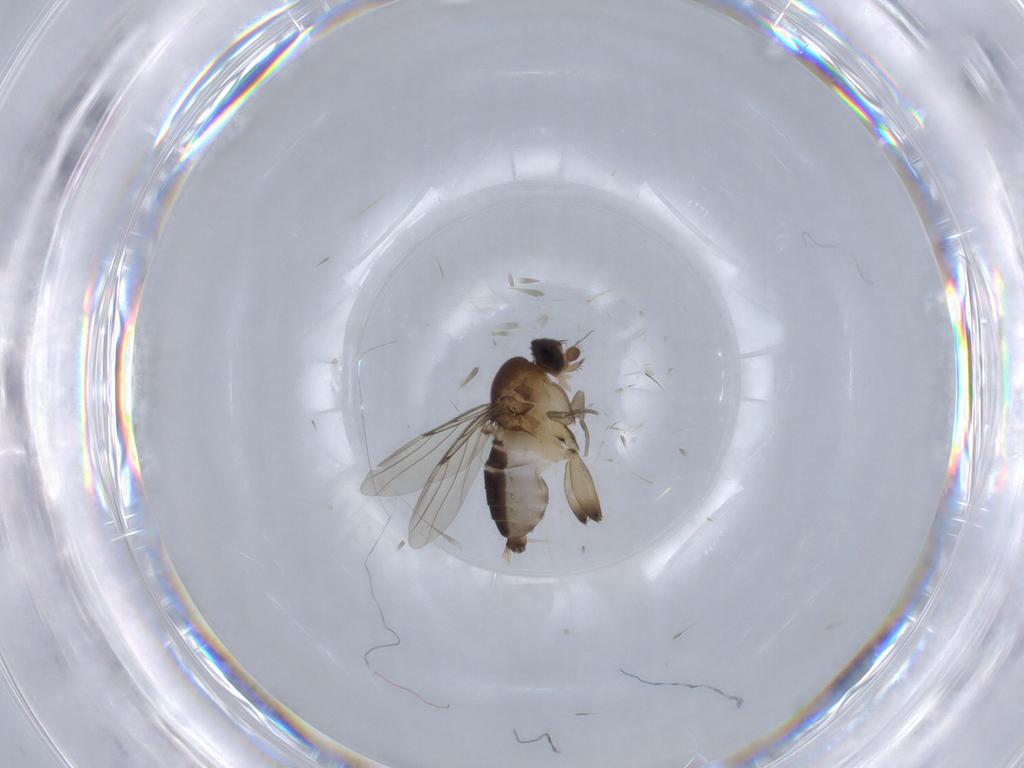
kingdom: Animalia
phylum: Arthropoda
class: Insecta
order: Diptera
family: Phoridae
